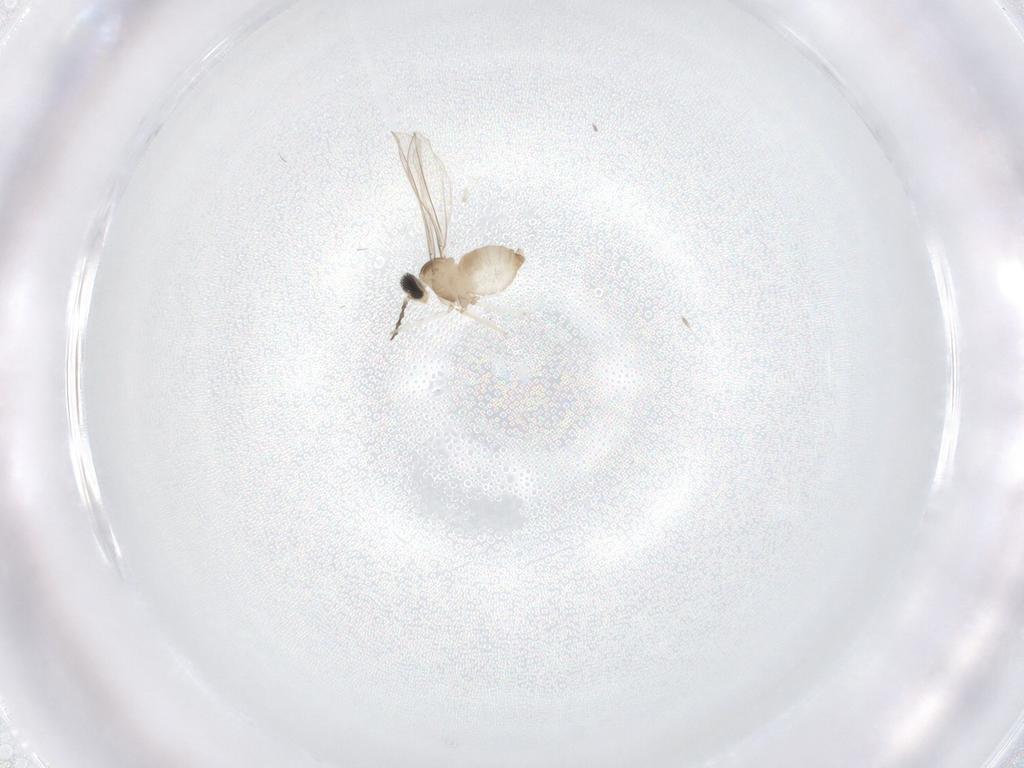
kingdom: Animalia
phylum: Arthropoda
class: Insecta
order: Diptera
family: Cecidomyiidae
